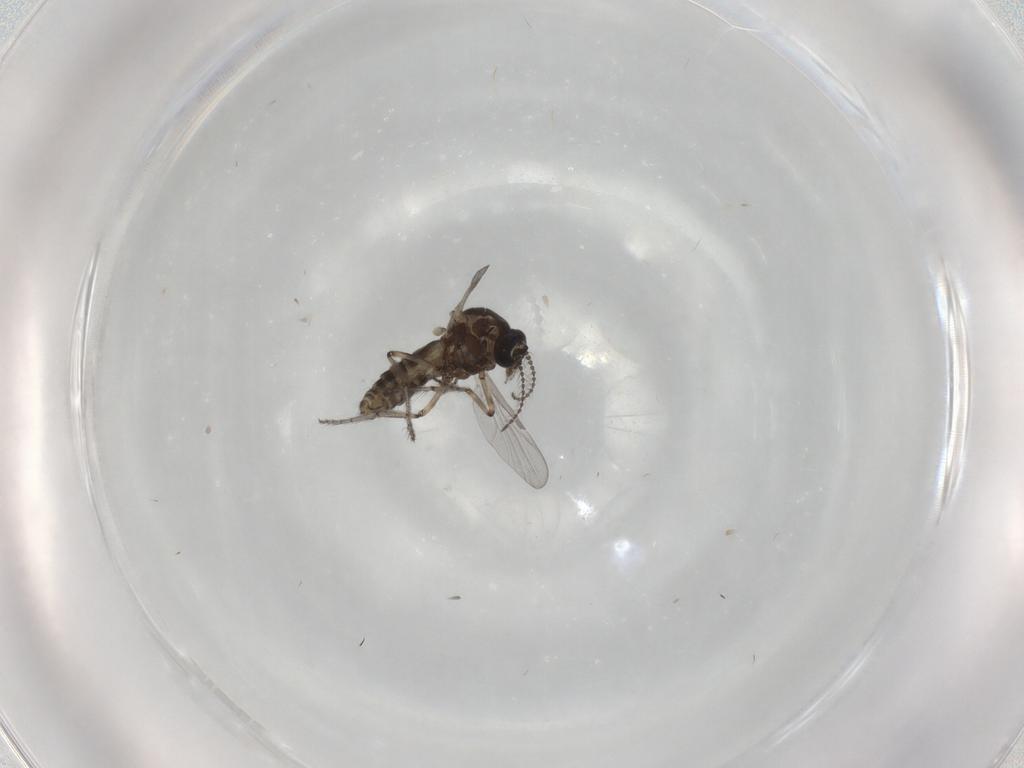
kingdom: Animalia
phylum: Arthropoda
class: Insecta
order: Diptera
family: Ceratopogonidae
